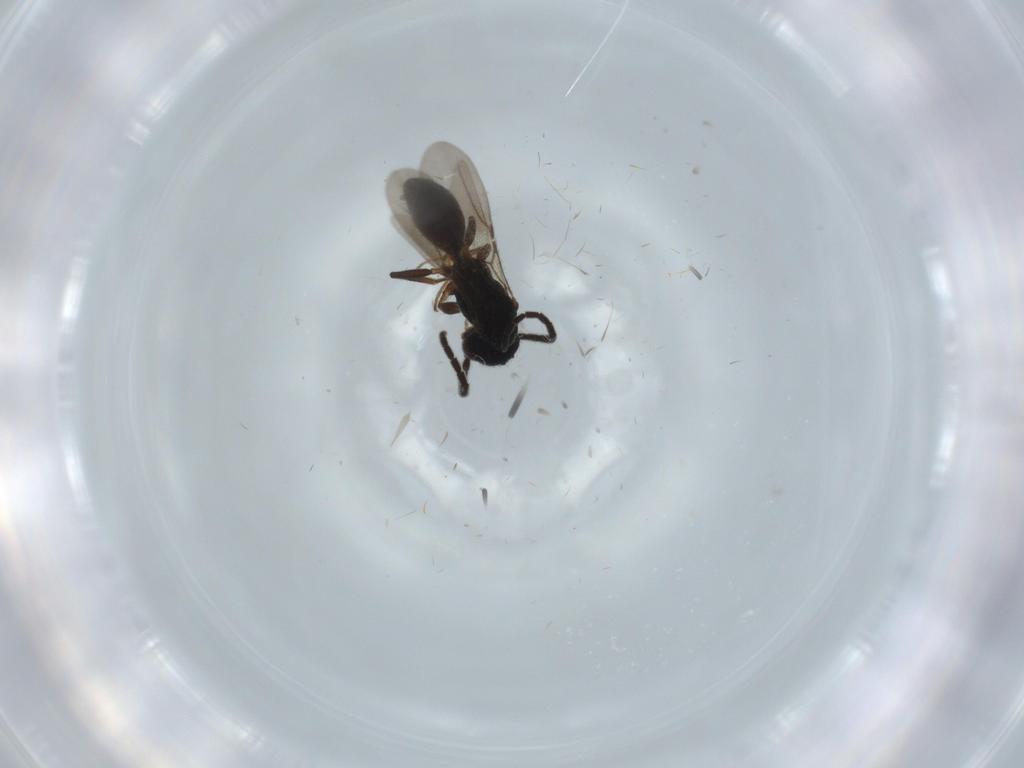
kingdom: Animalia
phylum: Arthropoda
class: Insecta
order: Hymenoptera
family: Bethylidae
